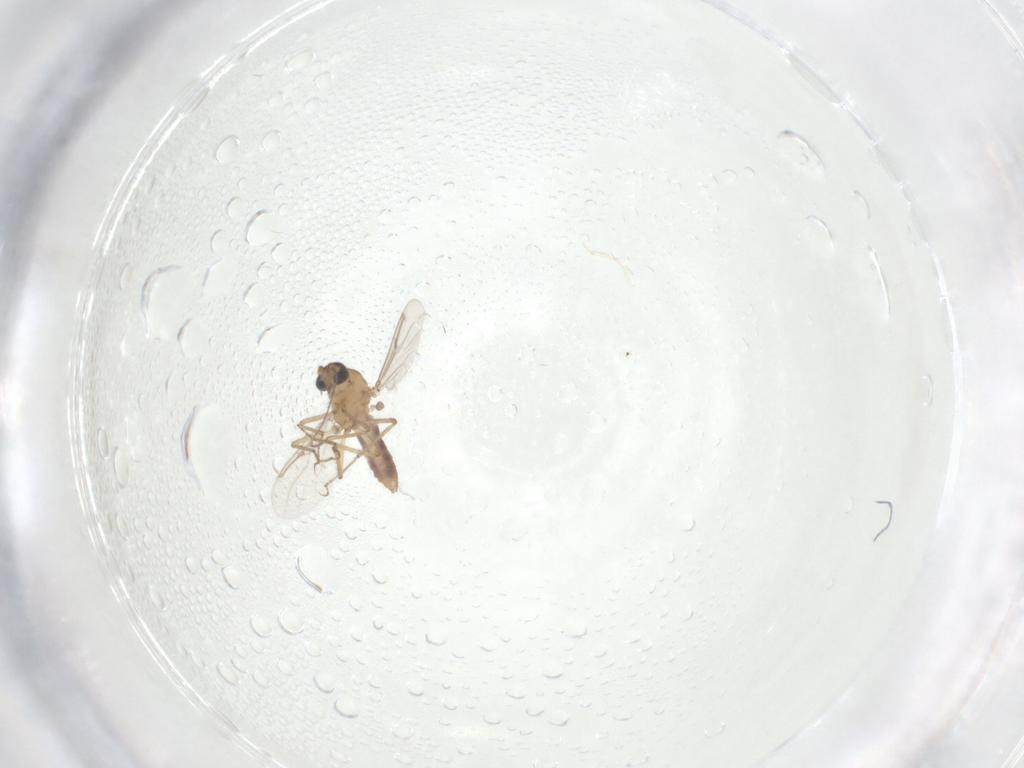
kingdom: Animalia
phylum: Arthropoda
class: Insecta
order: Diptera
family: Ceratopogonidae
